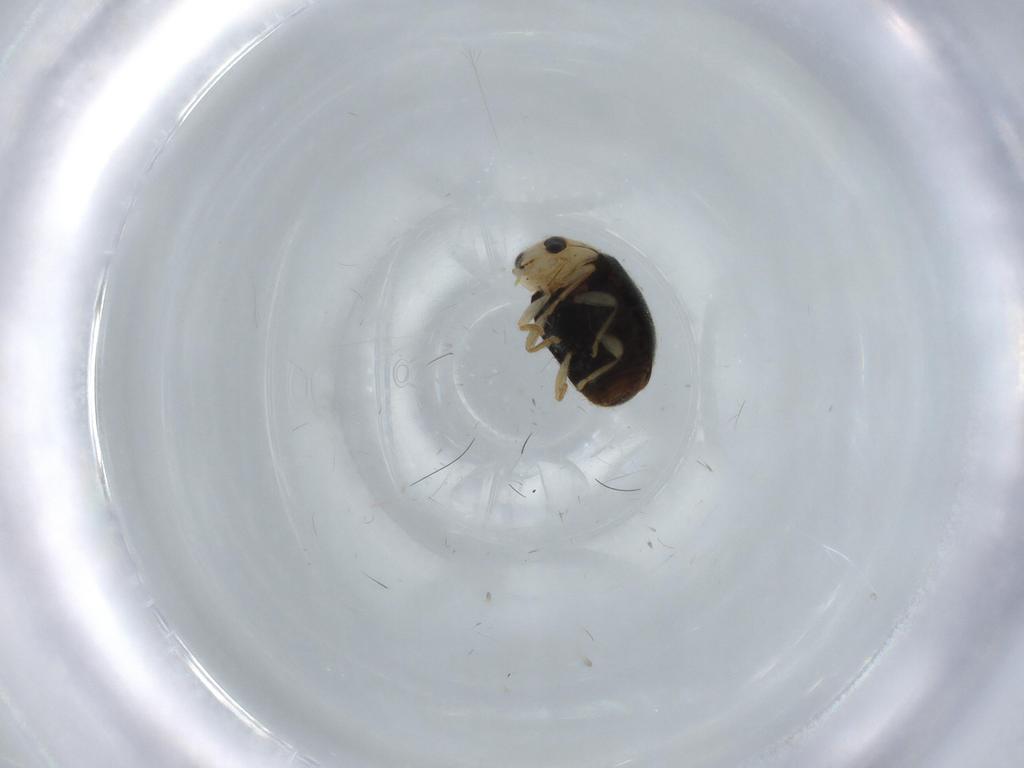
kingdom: Animalia
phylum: Arthropoda
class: Insecta
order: Coleoptera
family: Coccinellidae
